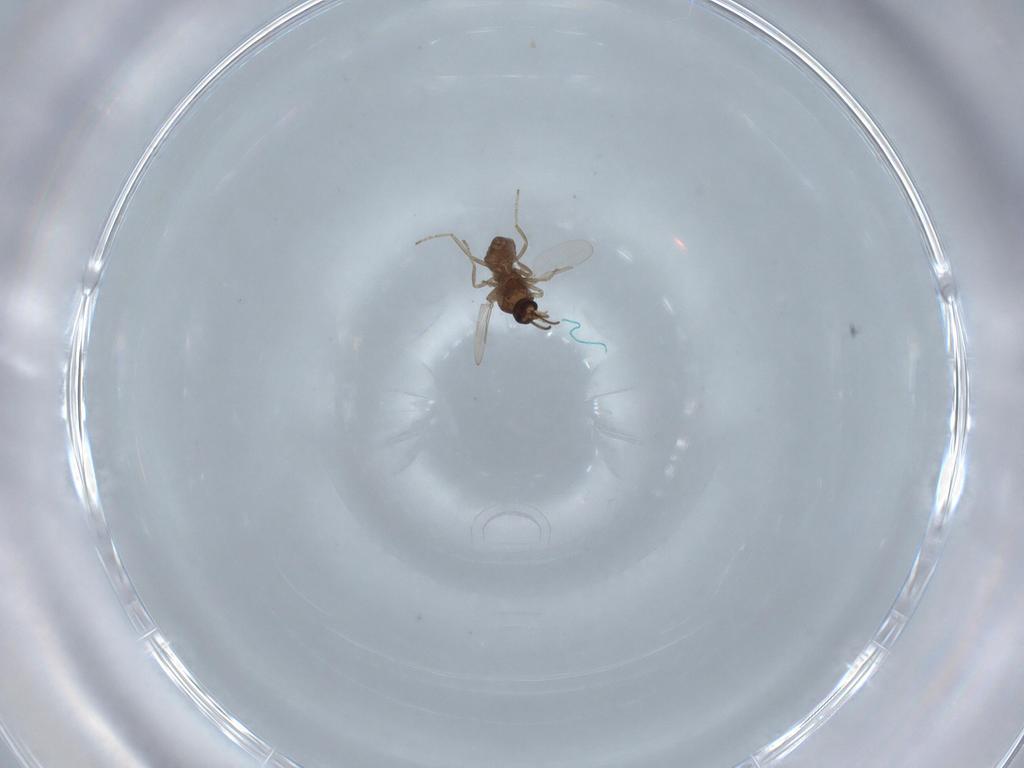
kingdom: Animalia
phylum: Arthropoda
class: Insecta
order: Diptera
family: Ceratopogonidae
